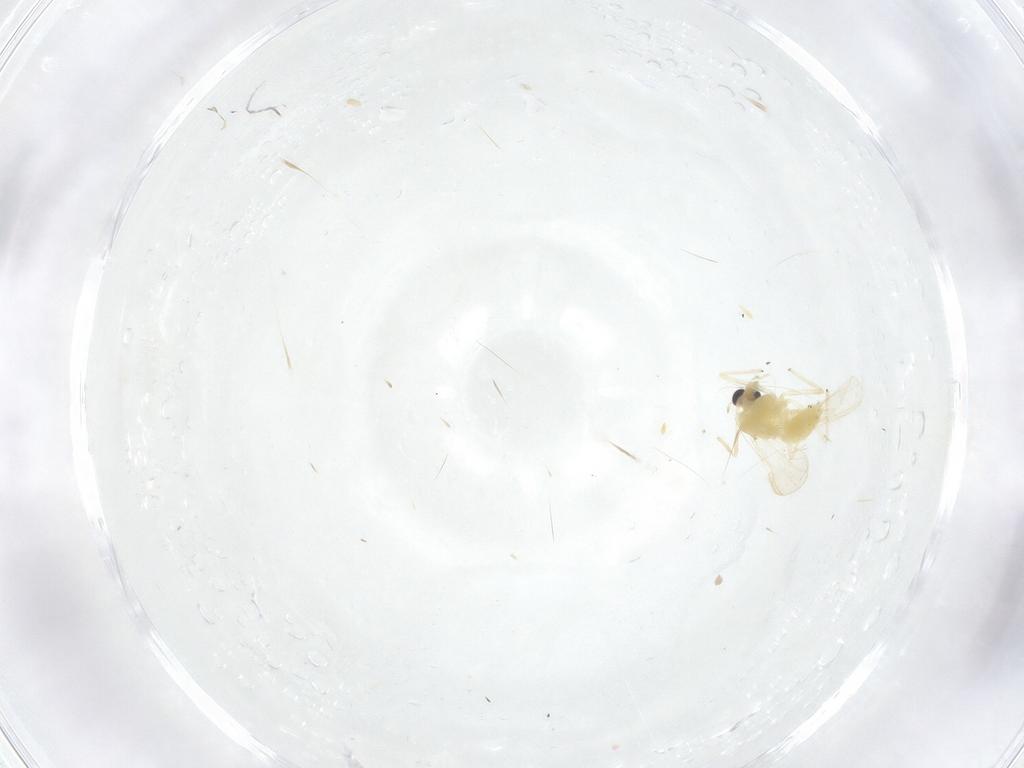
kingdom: Animalia
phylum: Arthropoda
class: Insecta
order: Diptera
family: Chironomidae
